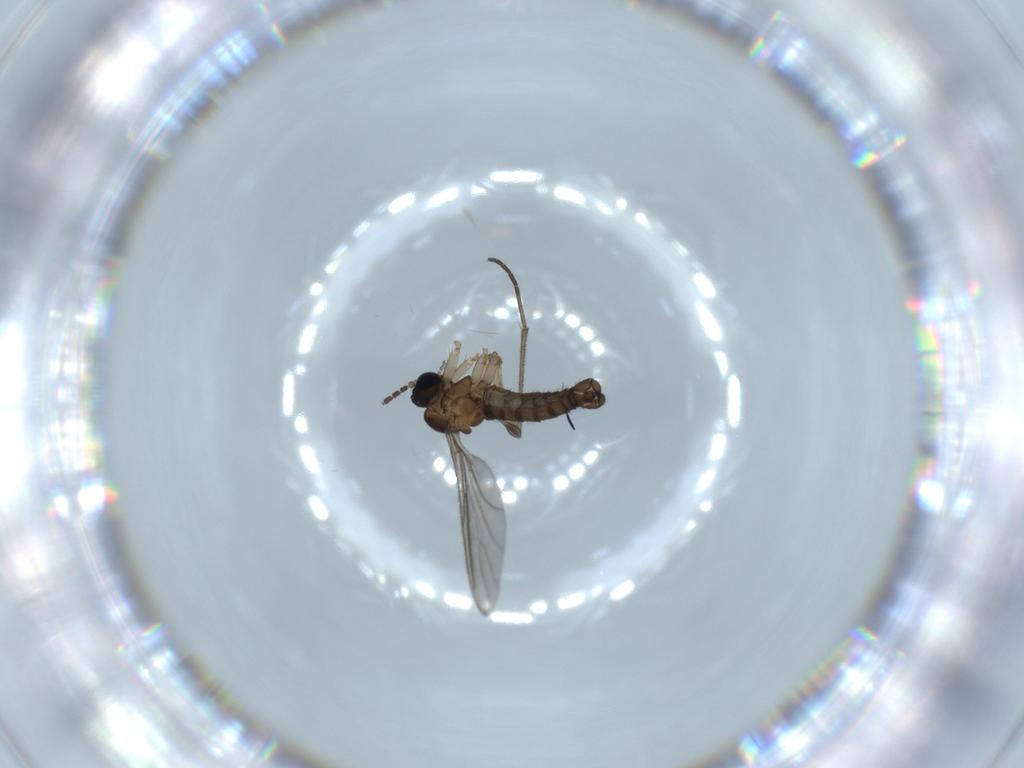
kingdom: Animalia
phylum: Arthropoda
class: Insecta
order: Diptera
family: Sciaridae
